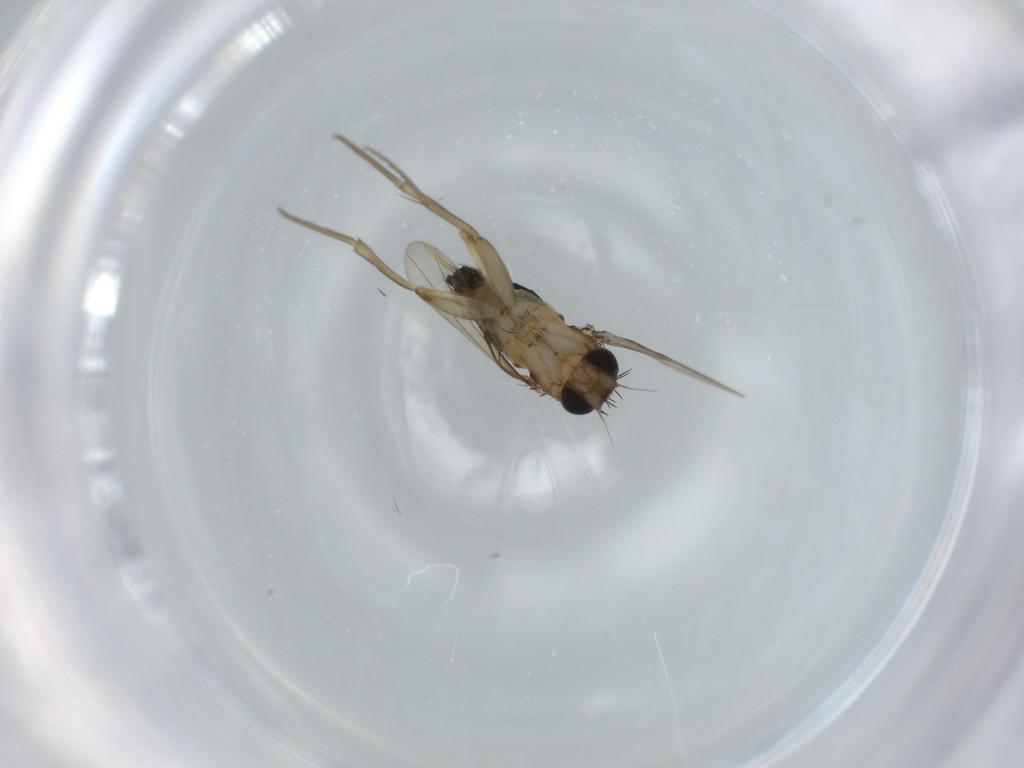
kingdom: Animalia
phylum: Arthropoda
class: Insecta
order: Diptera
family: Phoridae
